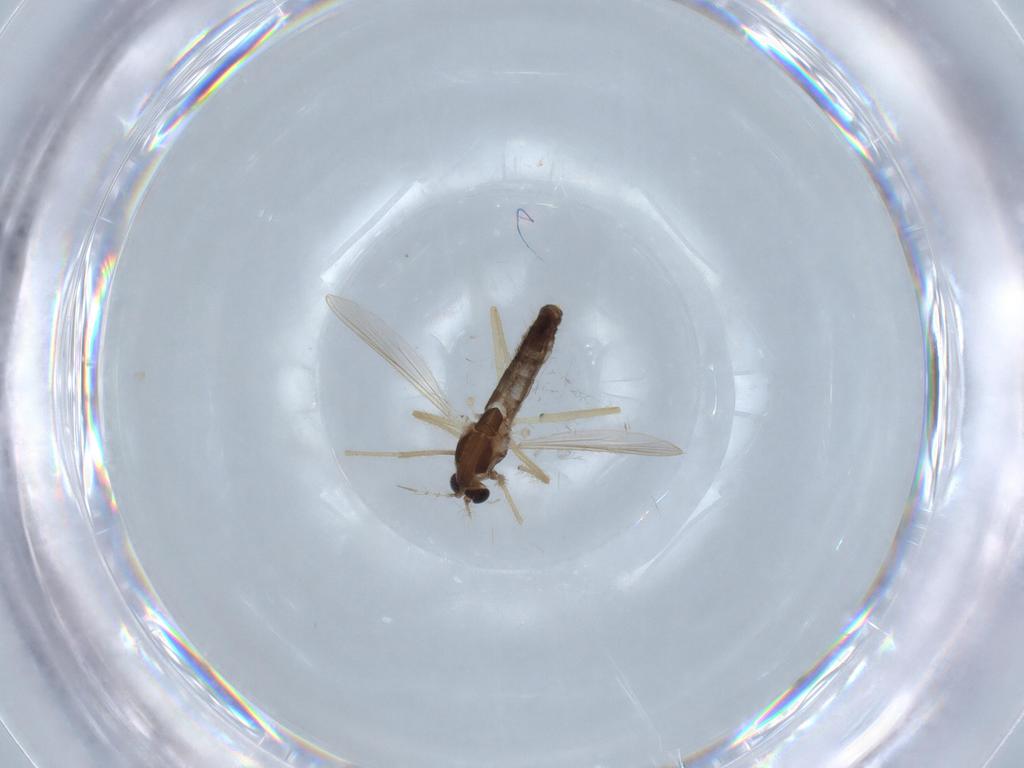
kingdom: Animalia
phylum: Arthropoda
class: Insecta
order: Diptera
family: Chironomidae
